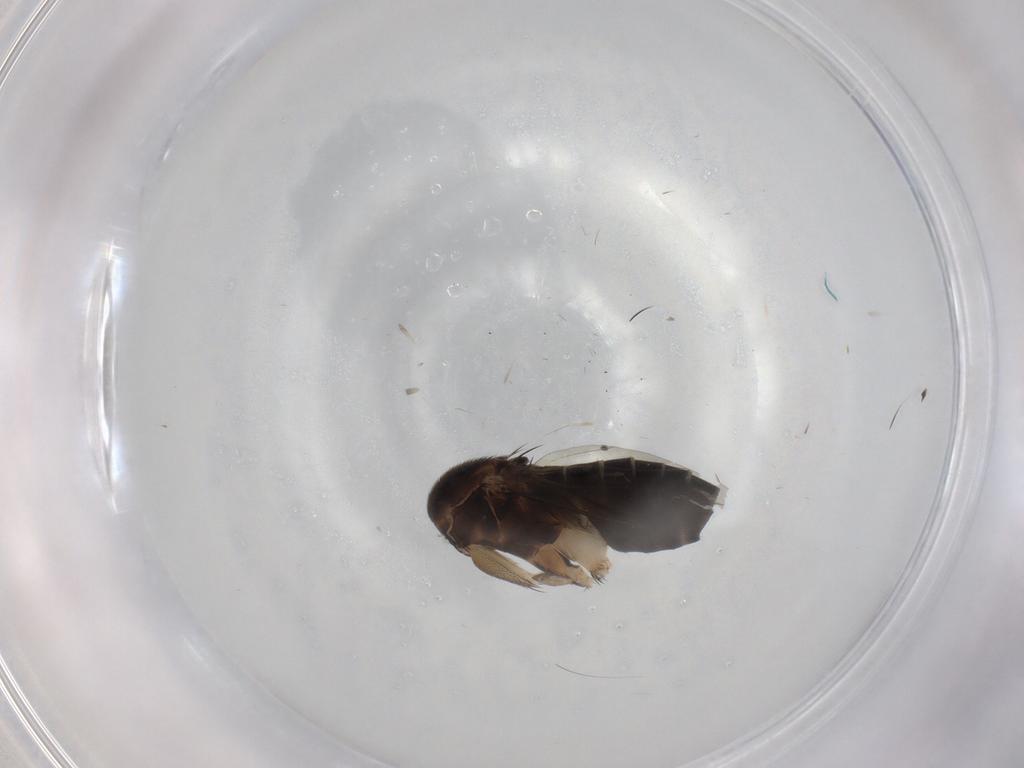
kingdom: Animalia
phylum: Arthropoda
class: Insecta
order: Diptera
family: Phoridae
